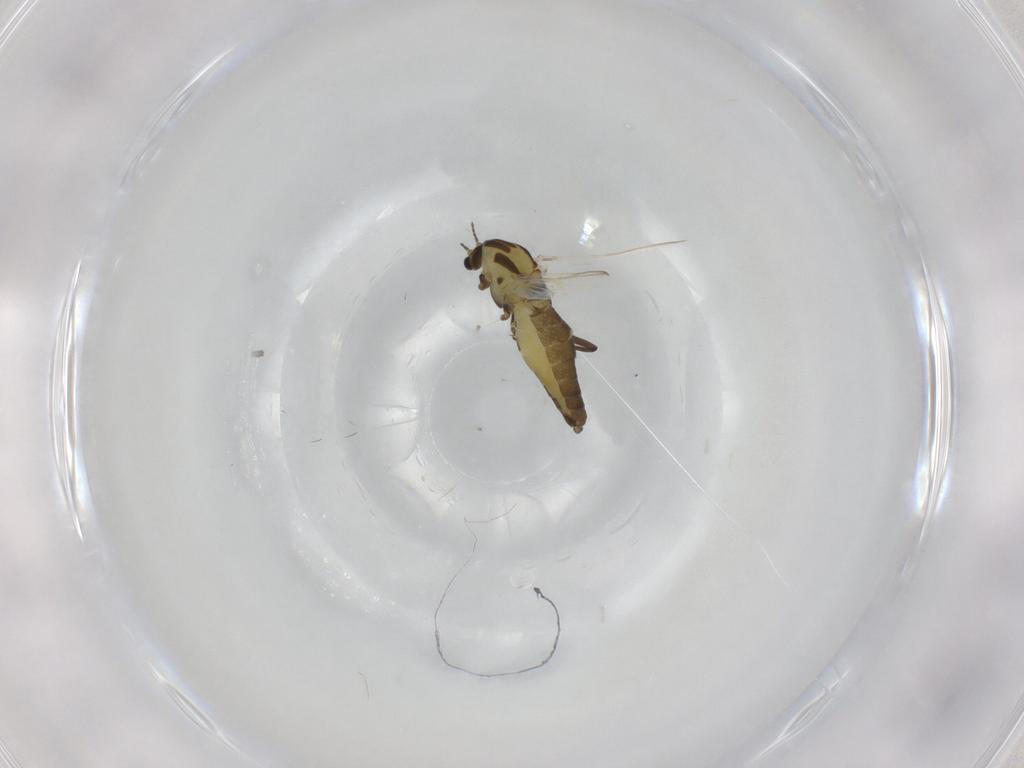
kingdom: Animalia
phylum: Arthropoda
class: Insecta
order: Diptera
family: Chironomidae
